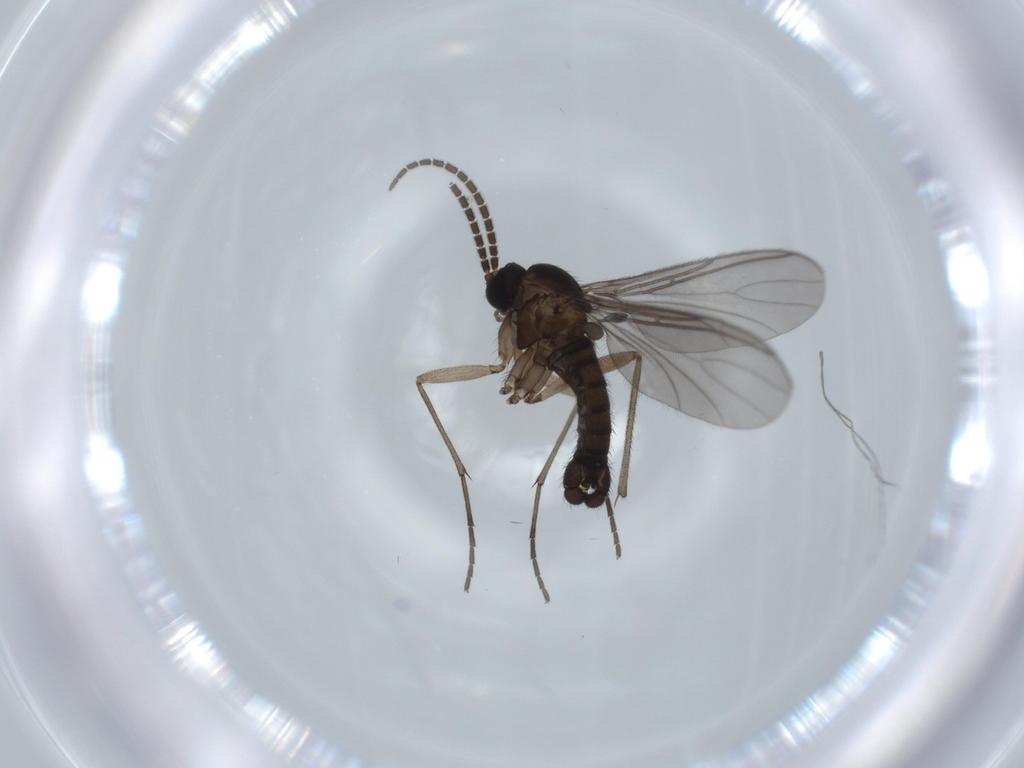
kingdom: Animalia
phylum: Arthropoda
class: Insecta
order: Diptera
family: Sciaridae
